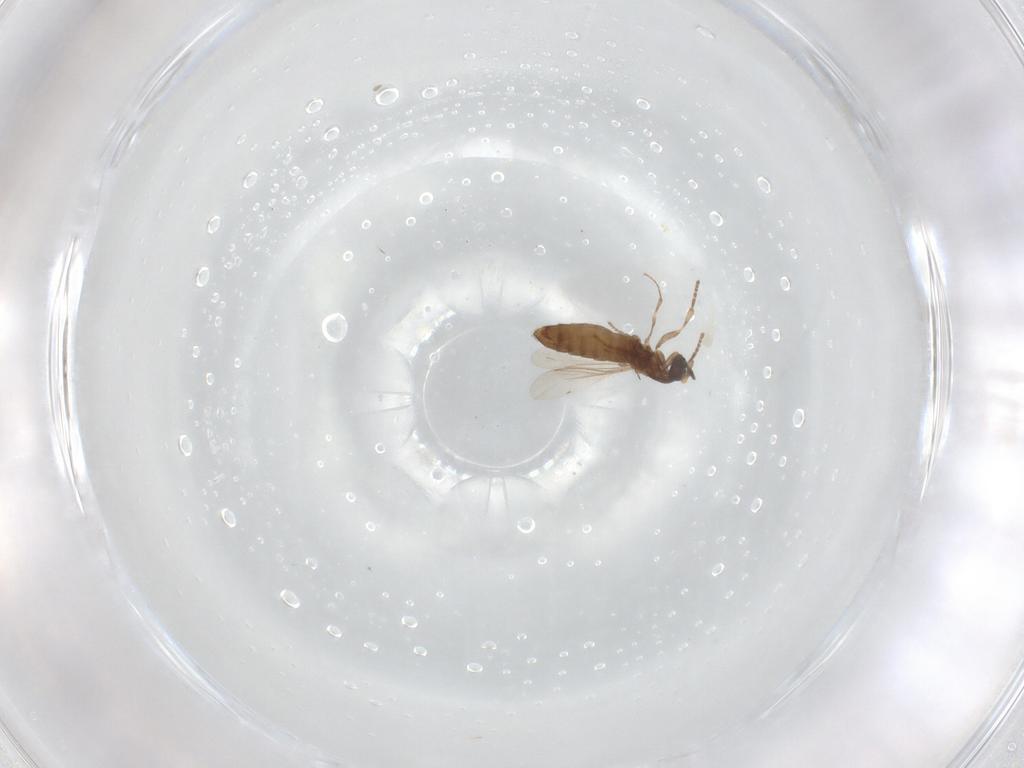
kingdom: Animalia
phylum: Arthropoda
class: Insecta
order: Diptera
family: Scatopsidae
